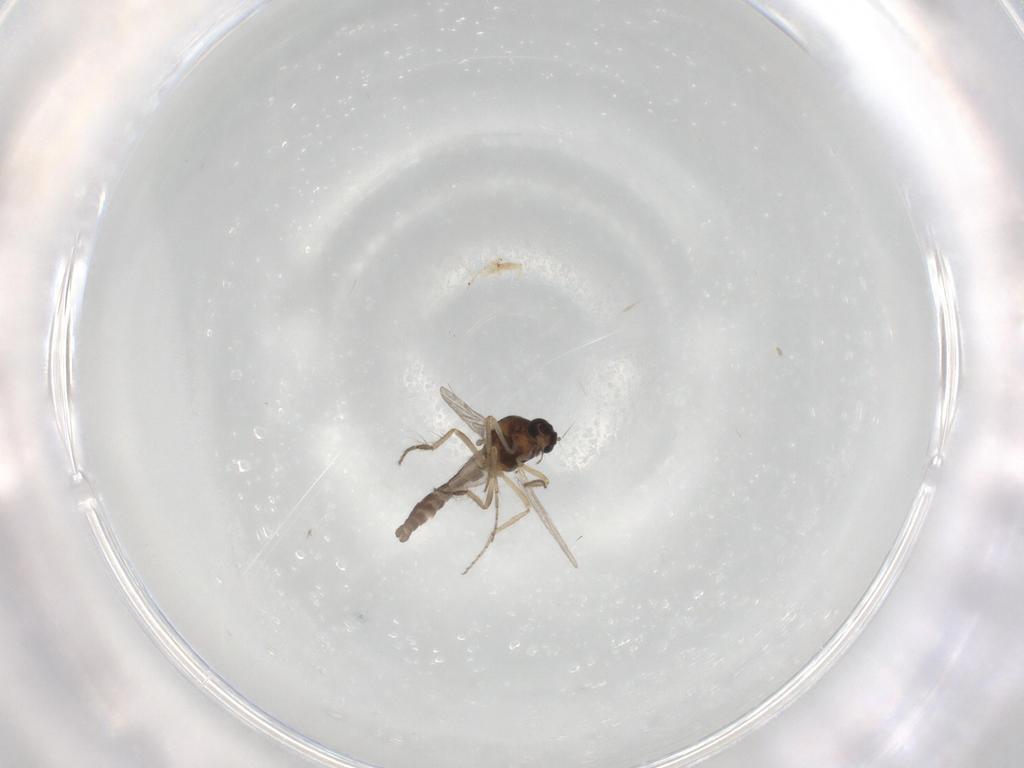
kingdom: Animalia
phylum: Arthropoda
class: Insecta
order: Diptera
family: Ceratopogonidae
